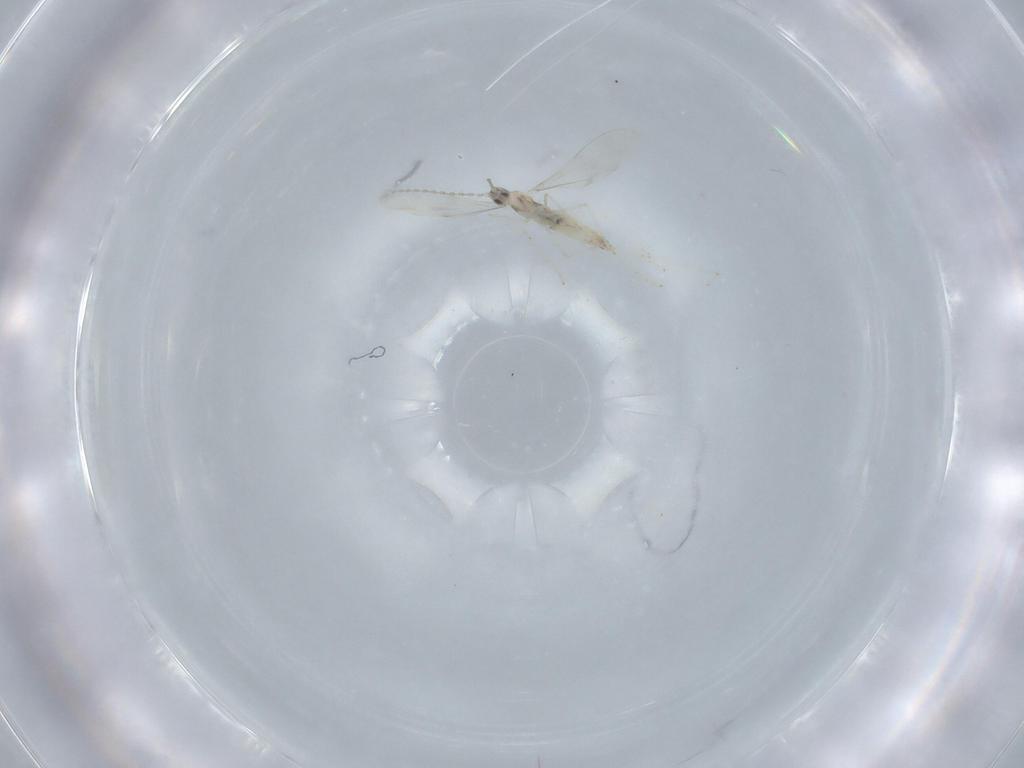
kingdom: Animalia
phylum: Arthropoda
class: Insecta
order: Diptera
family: Cecidomyiidae
